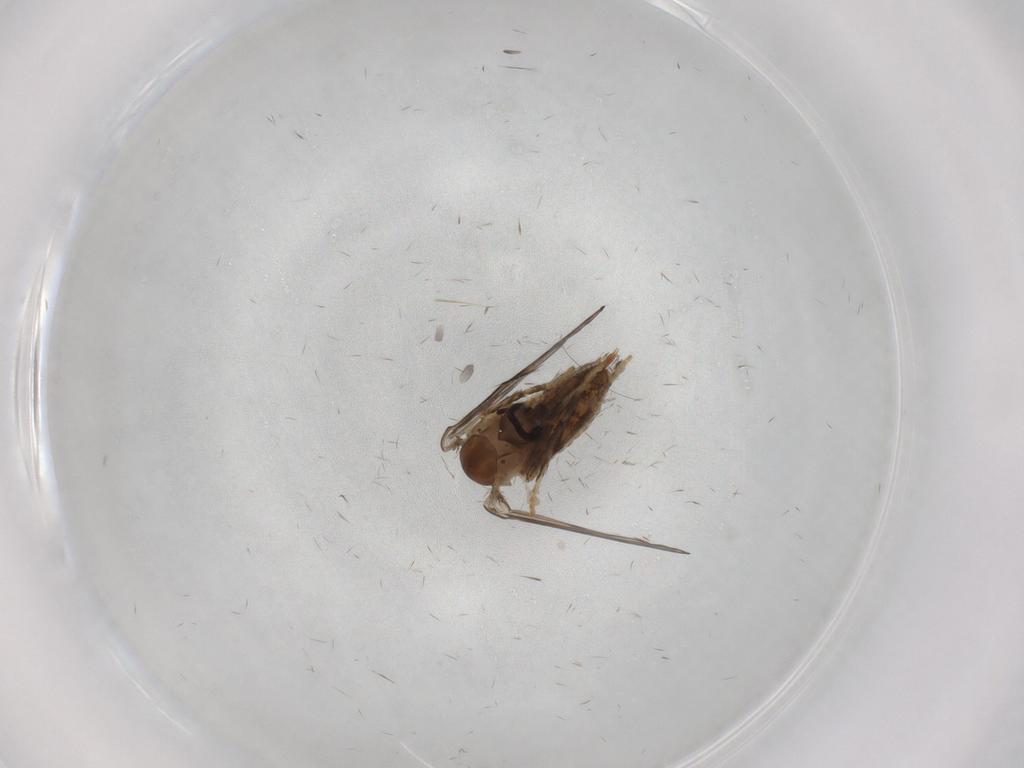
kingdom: Animalia
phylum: Arthropoda
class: Insecta
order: Diptera
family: Psychodidae
